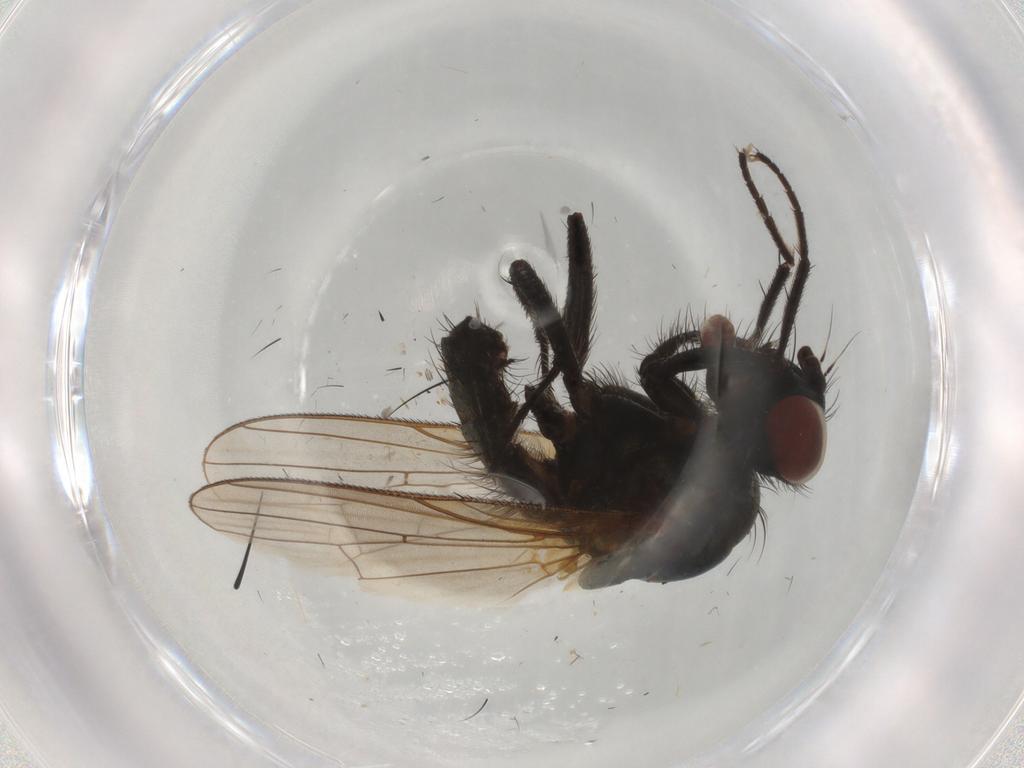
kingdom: Animalia
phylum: Arthropoda
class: Insecta
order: Diptera
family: Anthomyiidae
